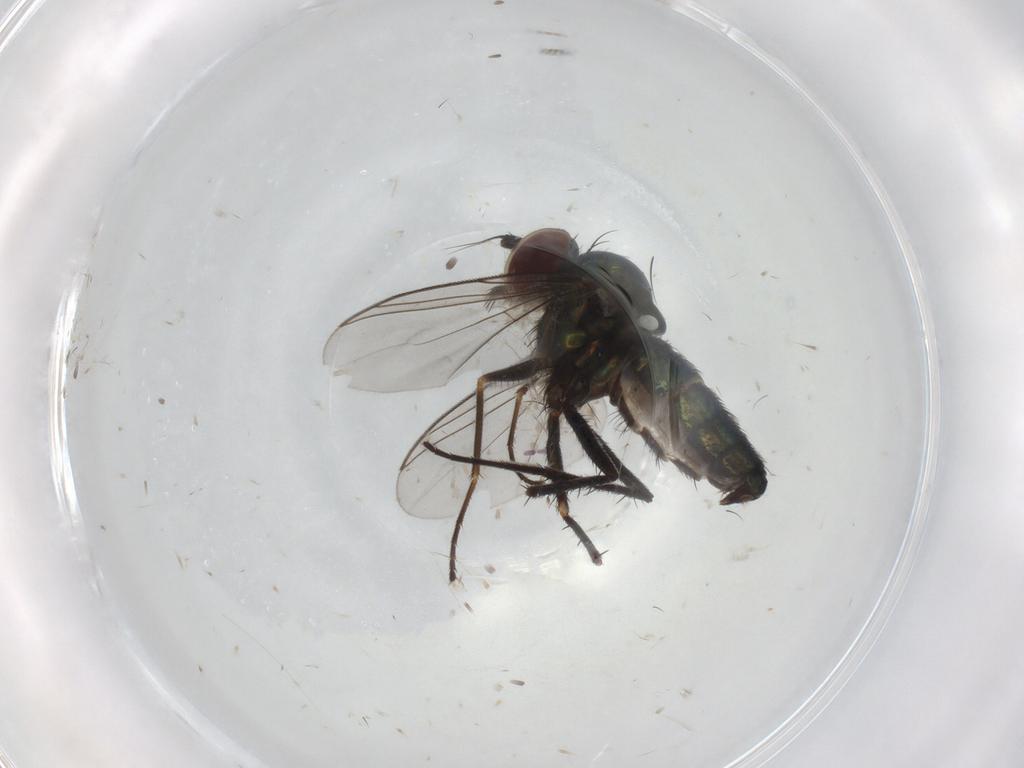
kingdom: Animalia
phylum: Arthropoda
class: Insecta
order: Diptera
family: Dolichopodidae
